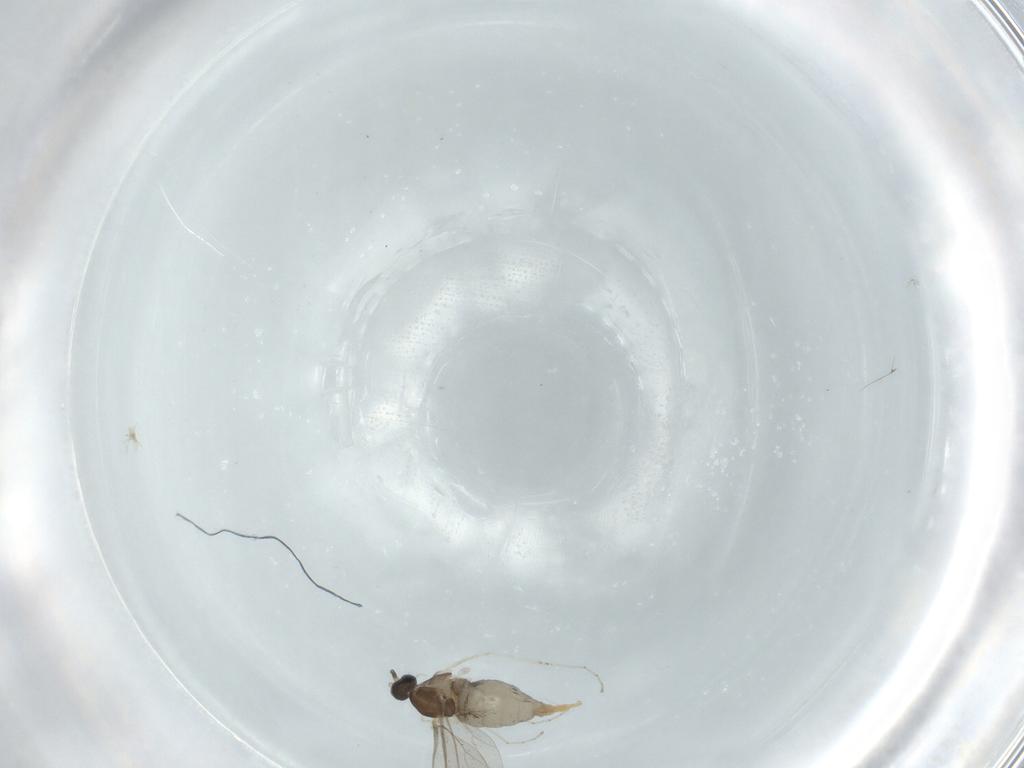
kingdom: Animalia
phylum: Arthropoda
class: Insecta
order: Diptera
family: Cecidomyiidae
